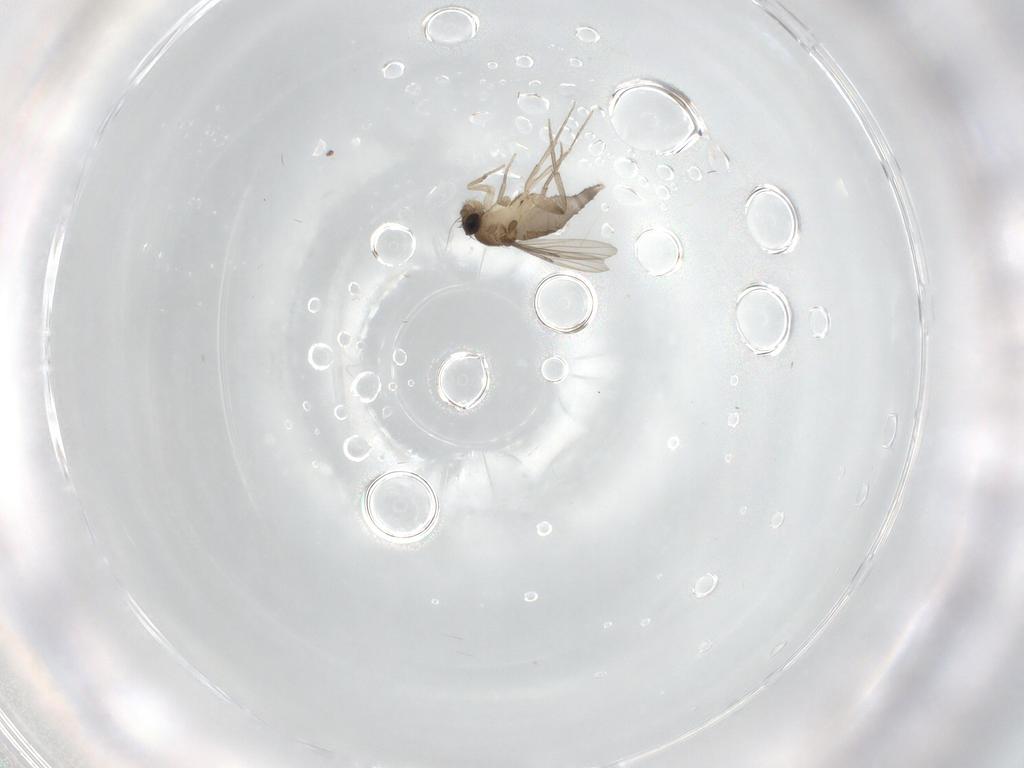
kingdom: Animalia
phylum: Arthropoda
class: Insecta
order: Diptera
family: Phoridae
